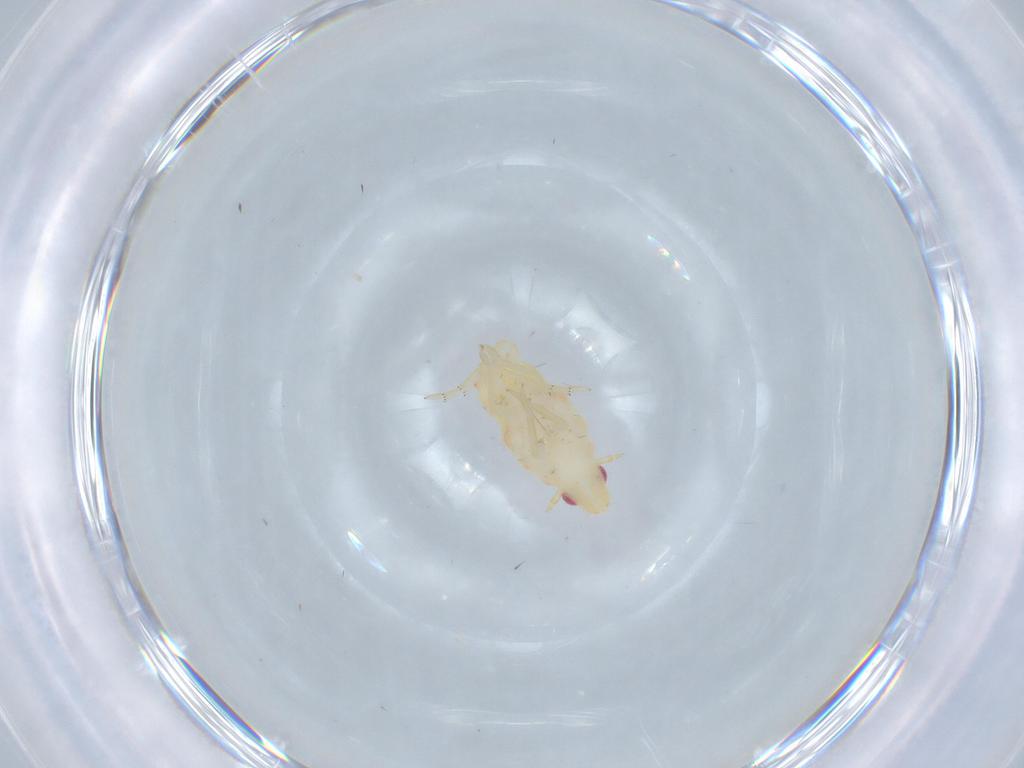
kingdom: Animalia
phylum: Arthropoda
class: Insecta
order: Hemiptera
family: Flatidae
